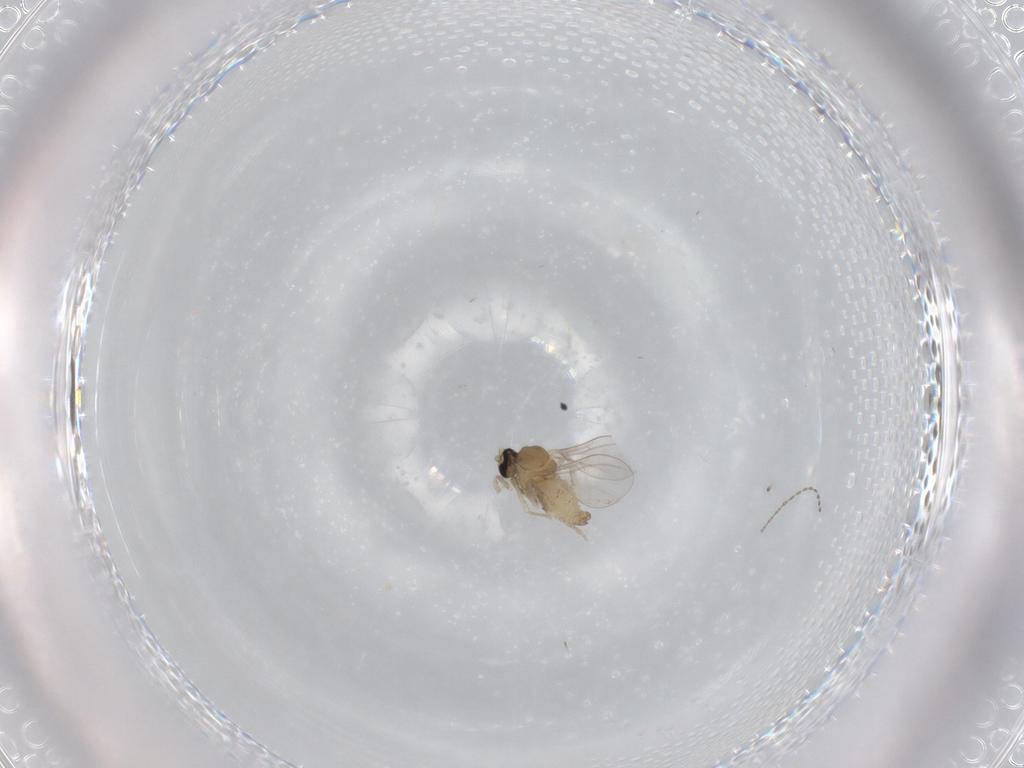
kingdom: Animalia
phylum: Arthropoda
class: Insecta
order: Diptera
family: Cecidomyiidae
